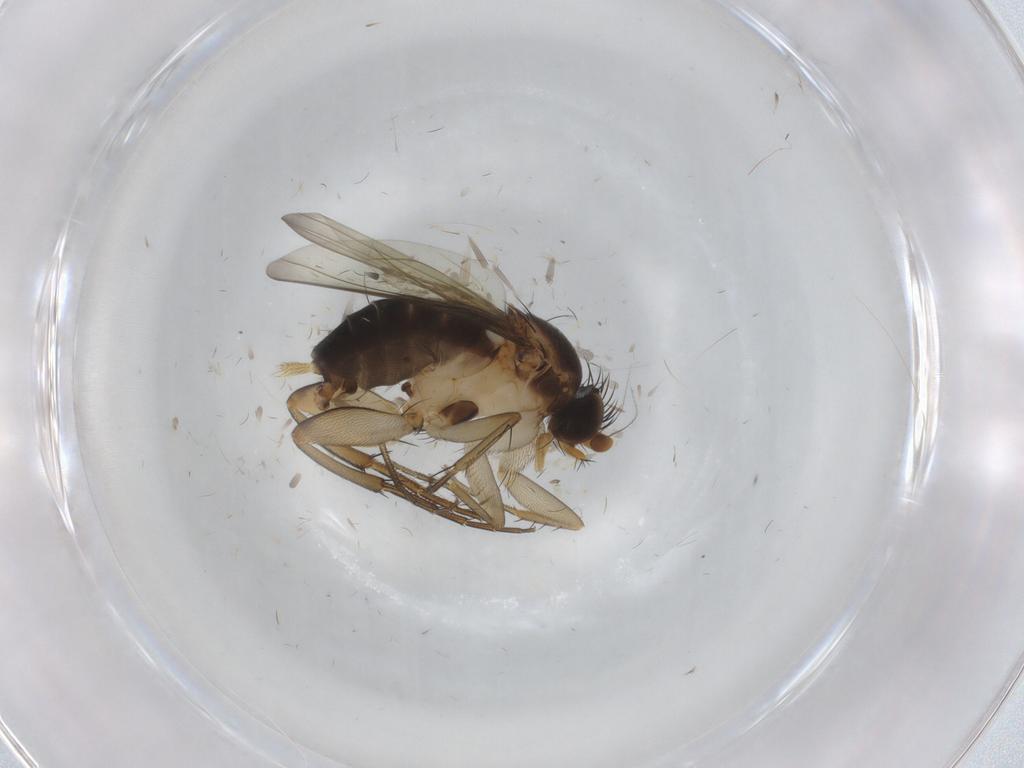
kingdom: Animalia
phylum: Arthropoda
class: Insecta
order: Diptera
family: Phoridae
